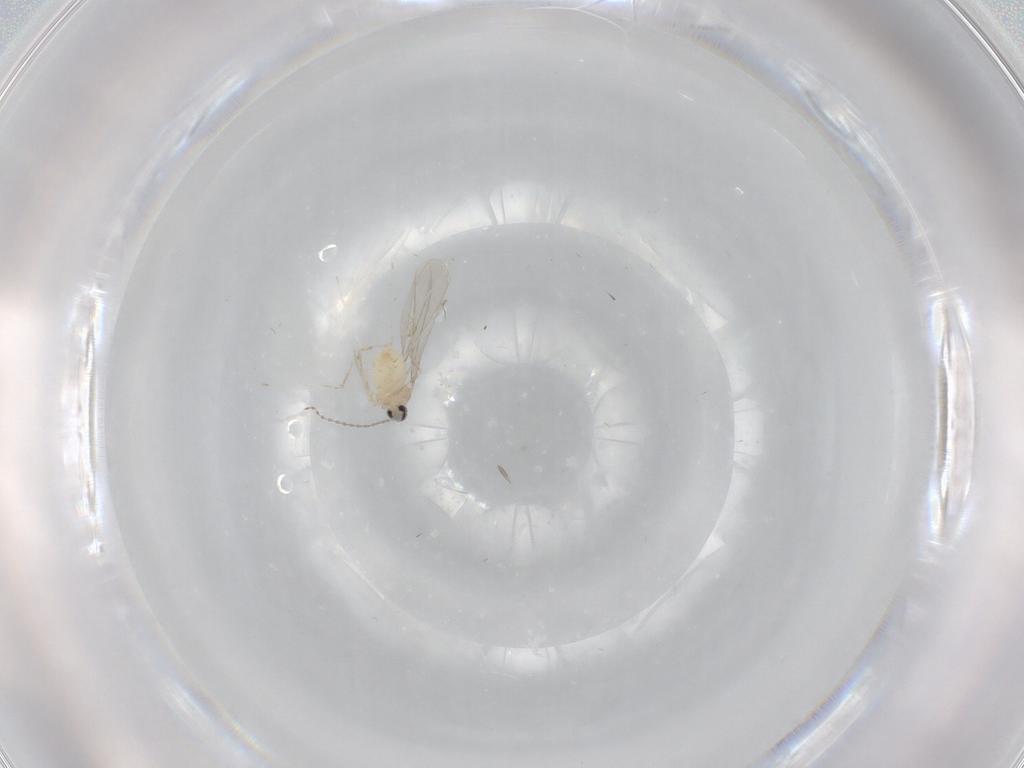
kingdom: Animalia
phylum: Arthropoda
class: Insecta
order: Diptera
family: Cecidomyiidae
